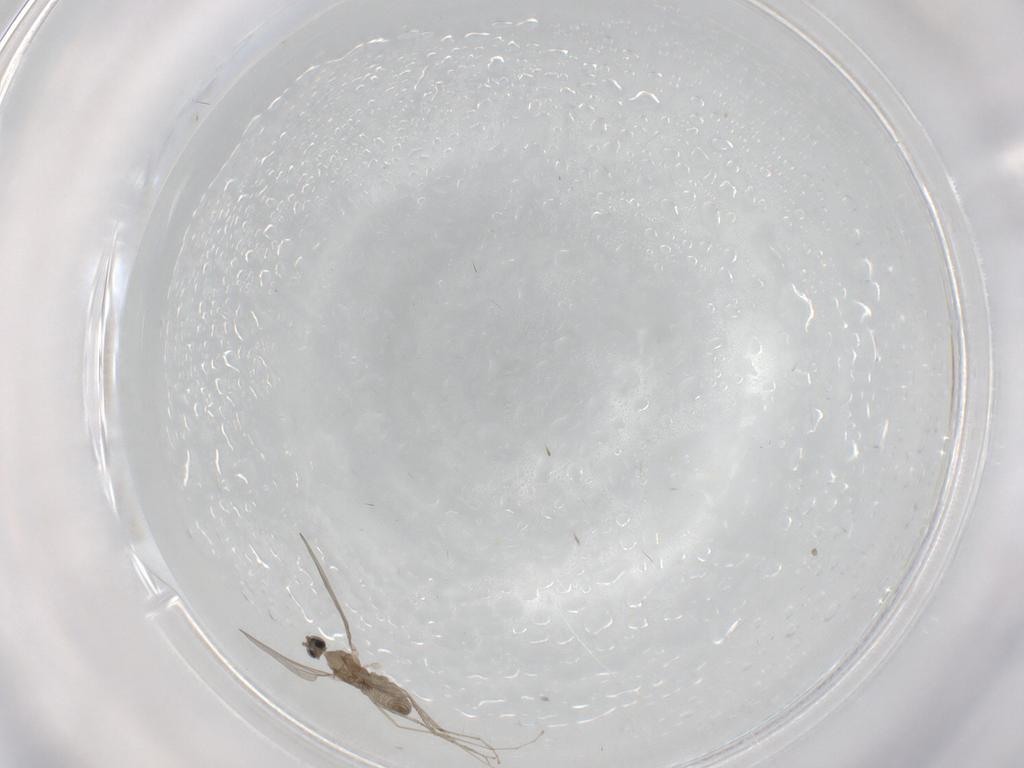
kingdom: Animalia
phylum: Arthropoda
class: Insecta
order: Diptera
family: Cecidomyiidae
